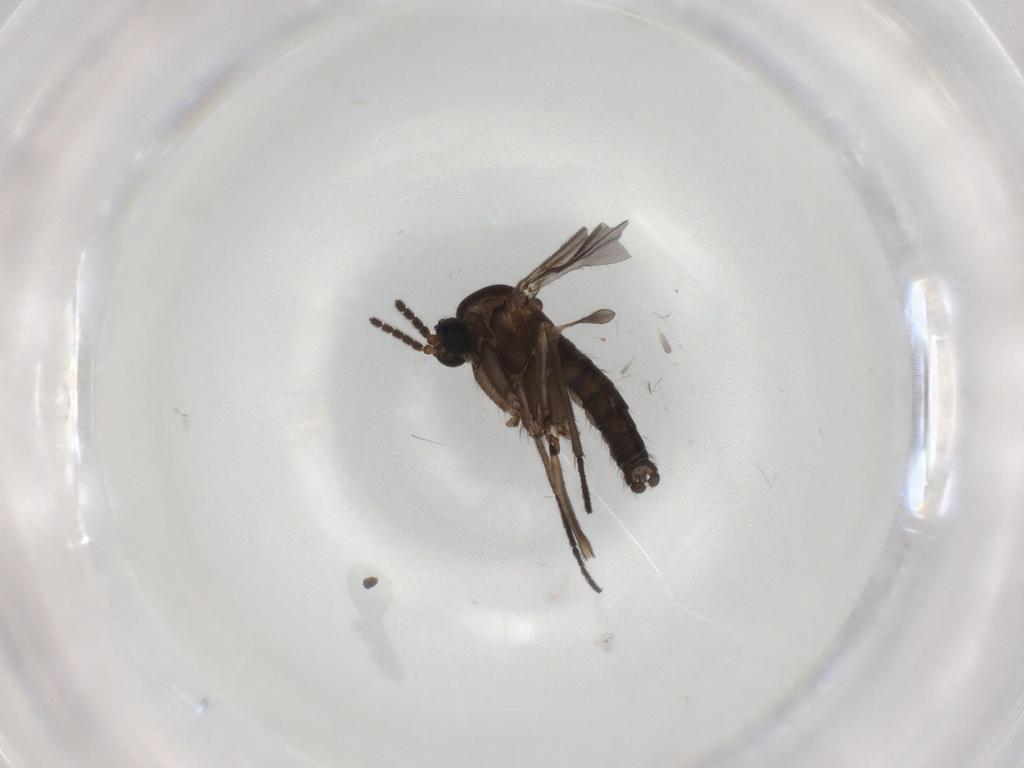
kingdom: Animalia
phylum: Arthropoda
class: Insecta
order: Diptera
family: Sciaridae
